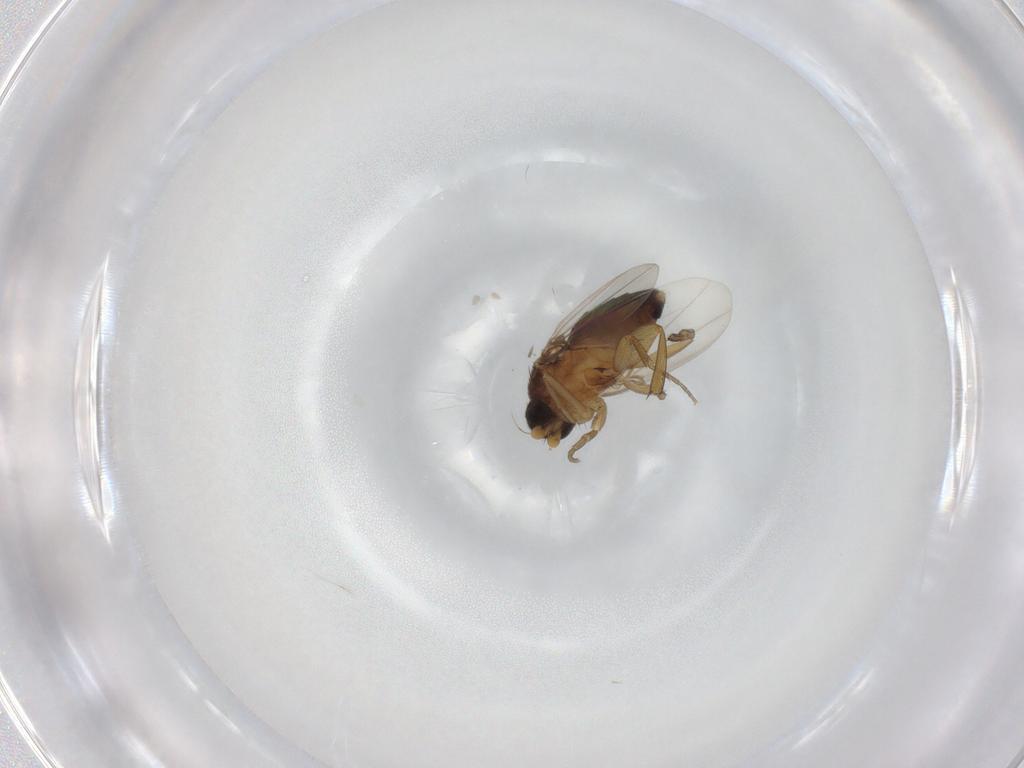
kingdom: Animalia
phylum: Arthropoda
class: Insecta
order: Diptera
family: Phoridae
